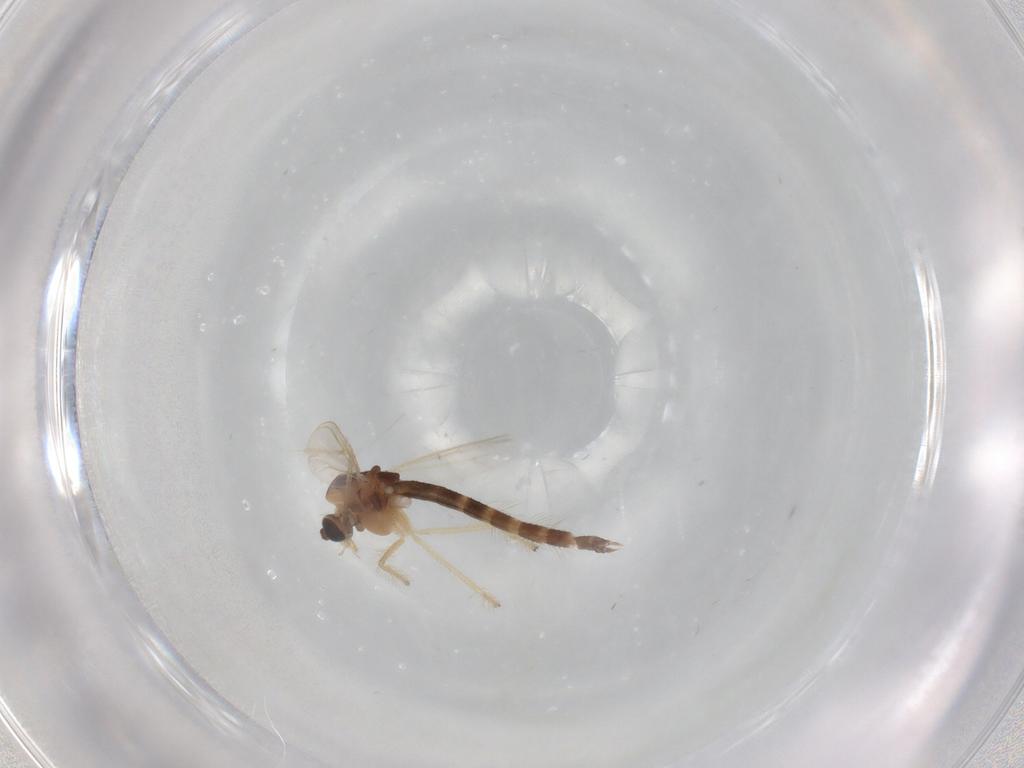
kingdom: Animalia
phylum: Arthropoda
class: Insecta
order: Diptera
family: Chironomidae
